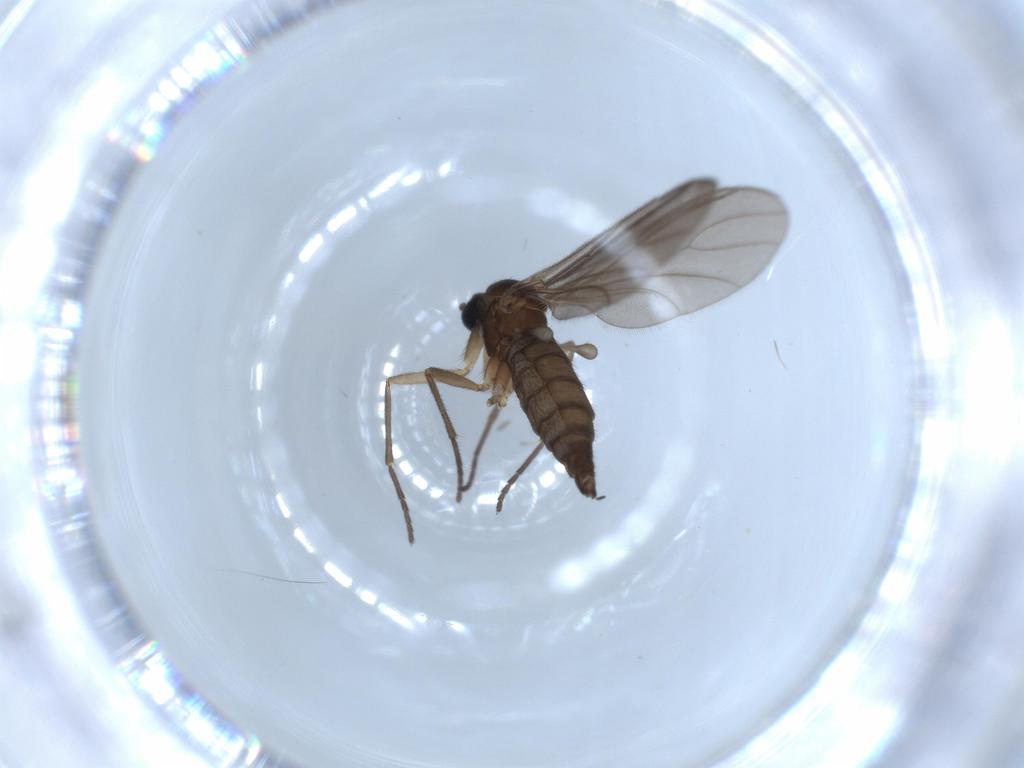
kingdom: Animalia
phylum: Arthropoda
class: Insecta
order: Diptera
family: Sciaridae
